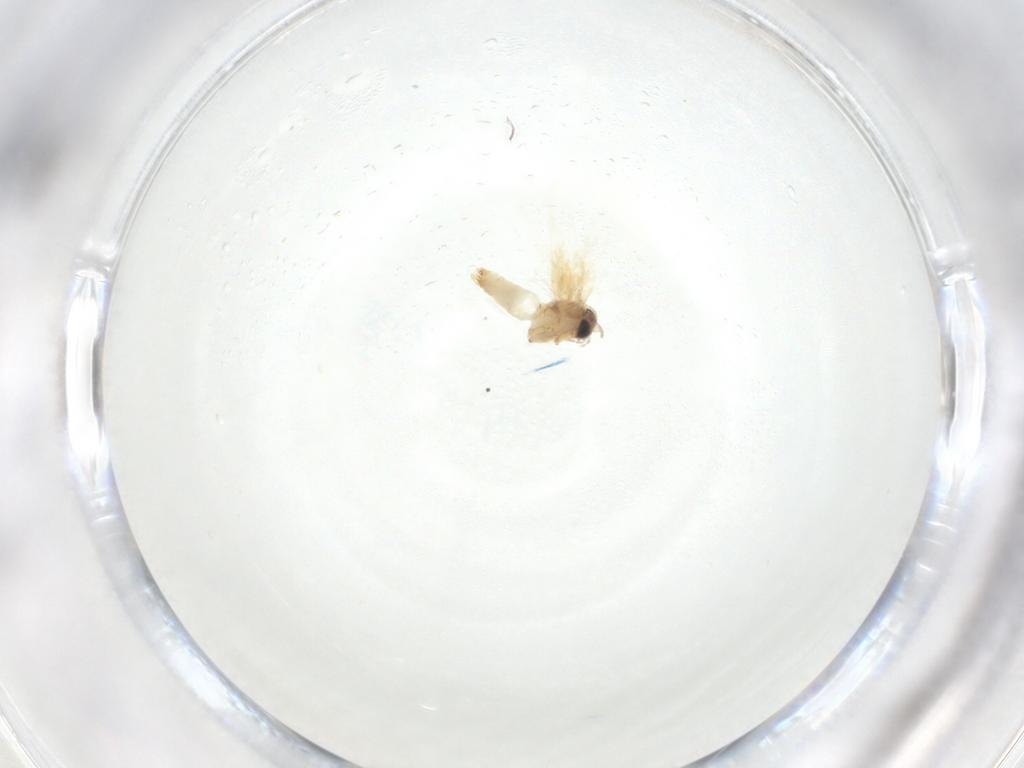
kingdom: Animalia
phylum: Arthropoda
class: Insecta
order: Lepidoptera
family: Crambidae
